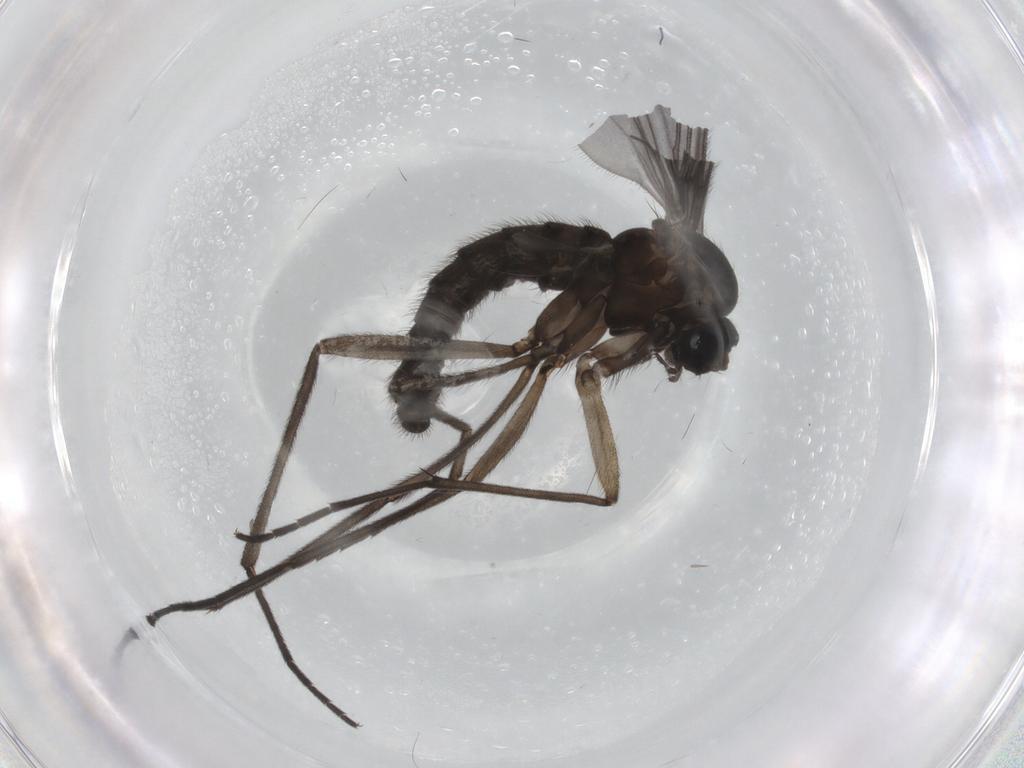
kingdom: Animalia
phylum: Arthropoda
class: Insecta
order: Diptera
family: Sciaridae
